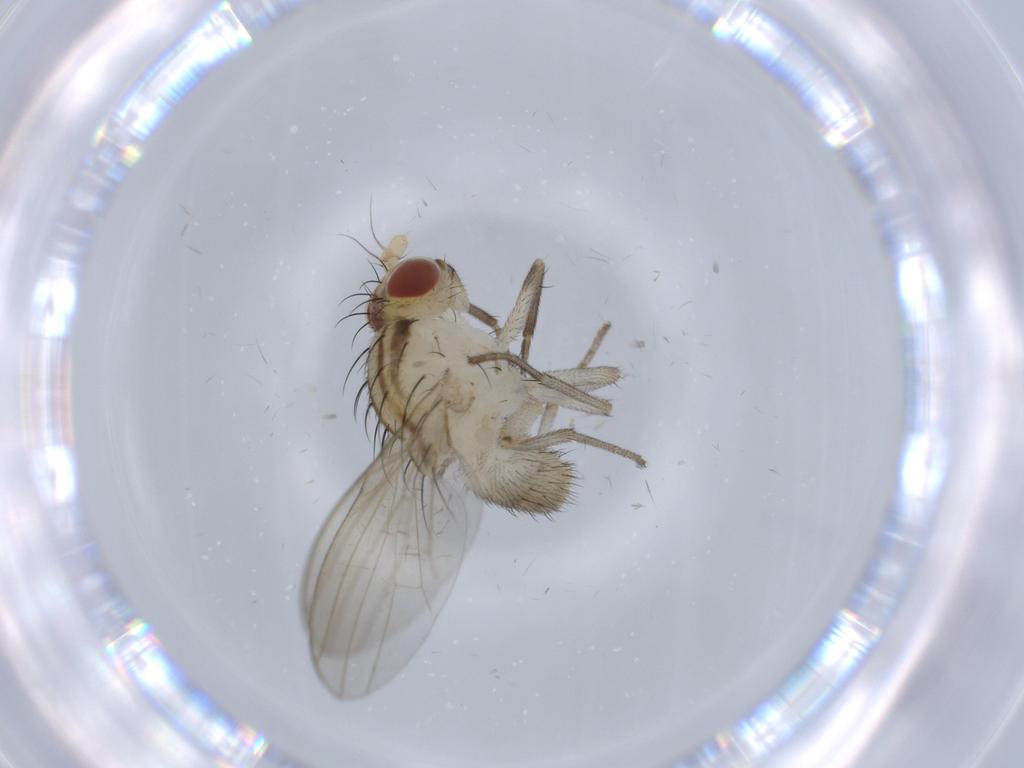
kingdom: Animalia
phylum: Arthropoda
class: Insecta
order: Diptera
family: Lauxaniidae
